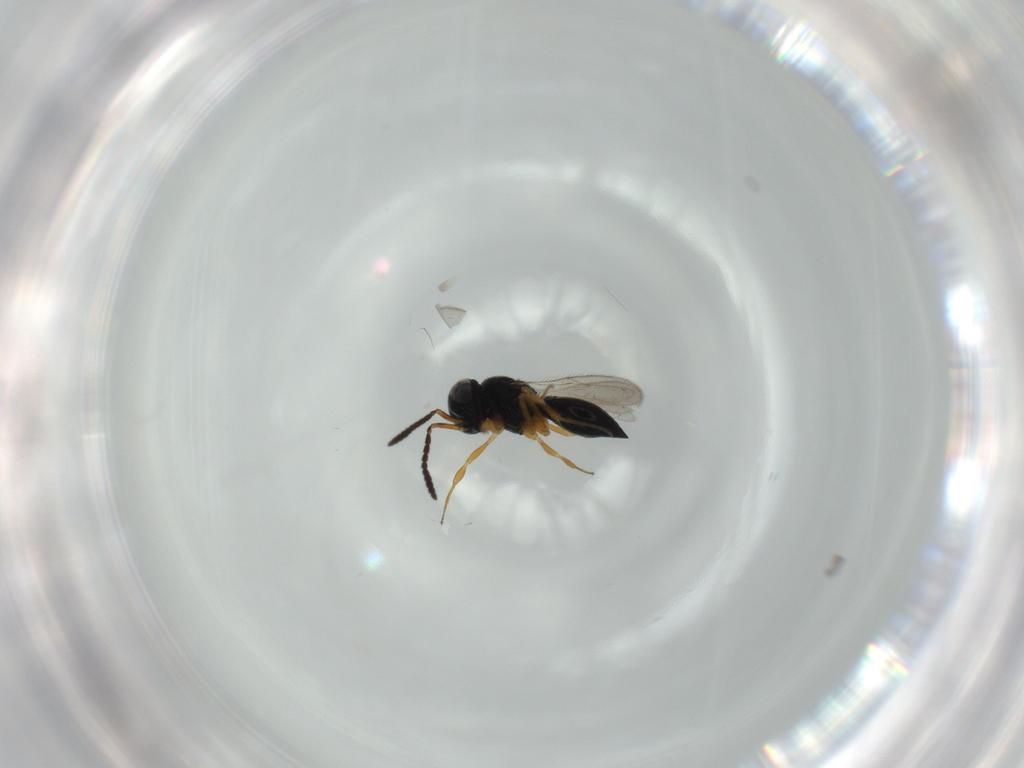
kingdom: Animalia
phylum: Arthropoda
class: Insecta
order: Hymenoptera
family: Scelionidae
